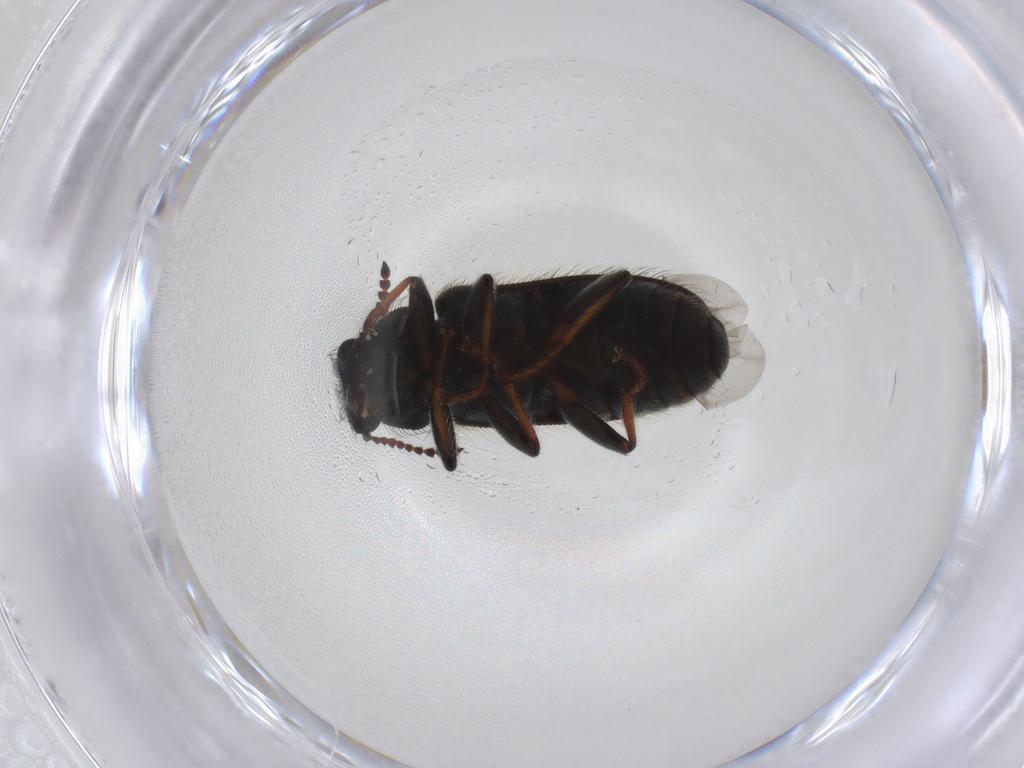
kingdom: Animalia
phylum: Arthropoda
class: Insecta
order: Coleoptera
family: Melyridae
